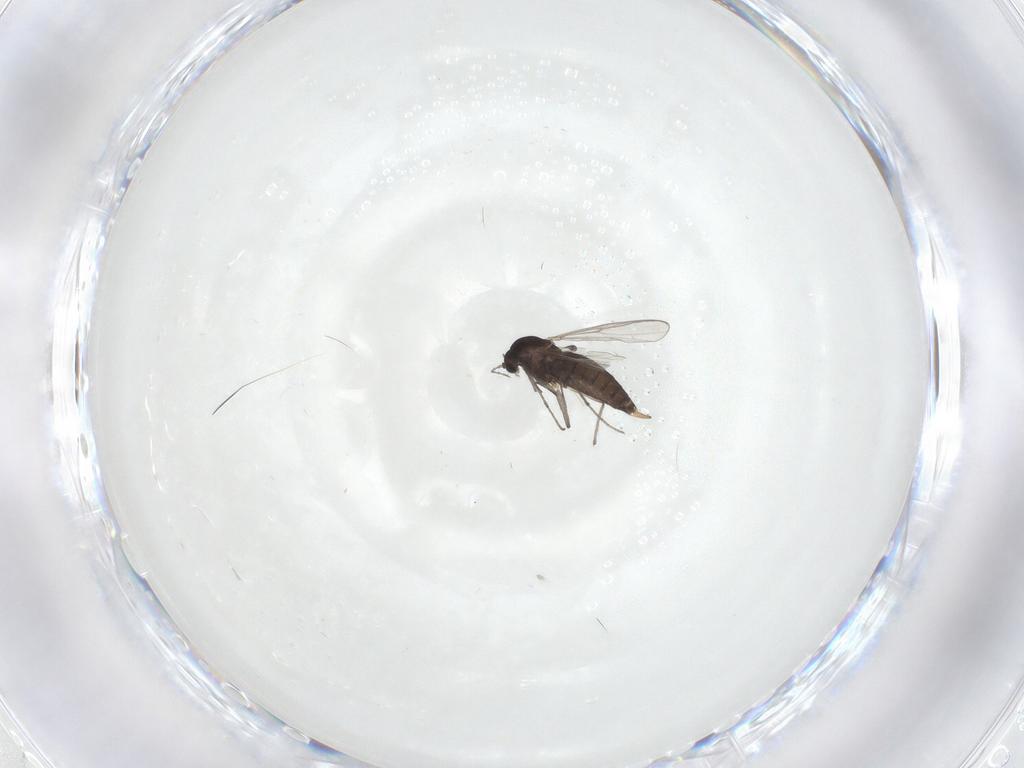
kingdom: Animalia
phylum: Arthropoda
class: Insecta
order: Diptera
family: Chironomidae
